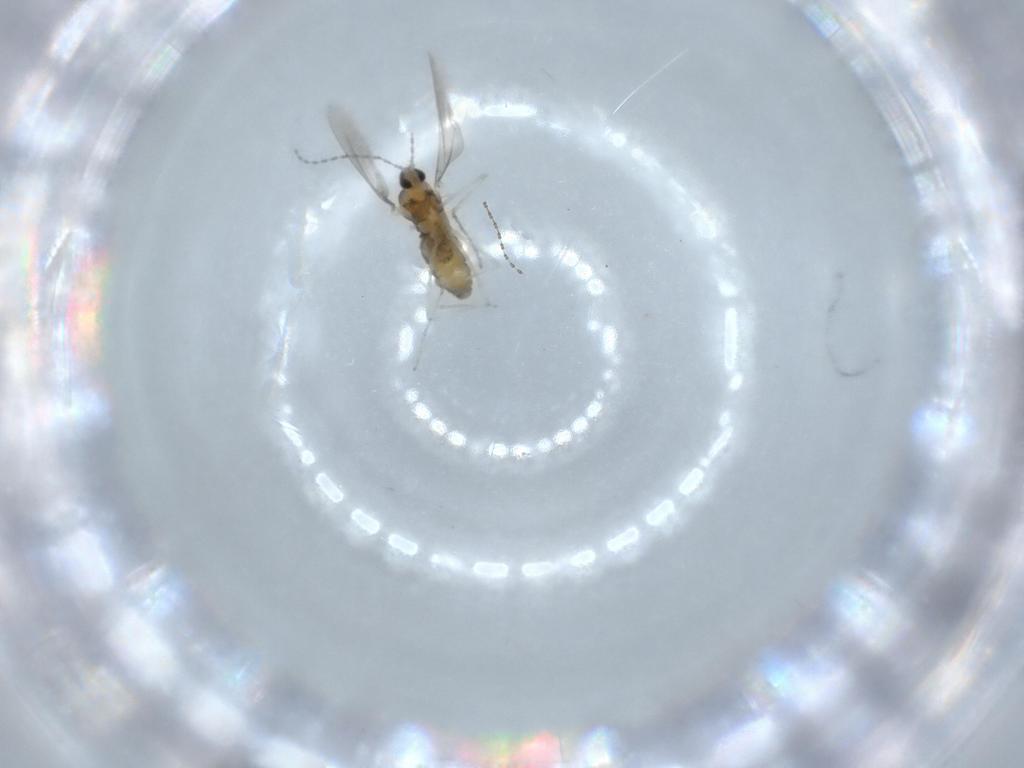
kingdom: Animalia
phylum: Arthropoda
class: Insecta
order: Diptera
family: Cecidomyiidae
